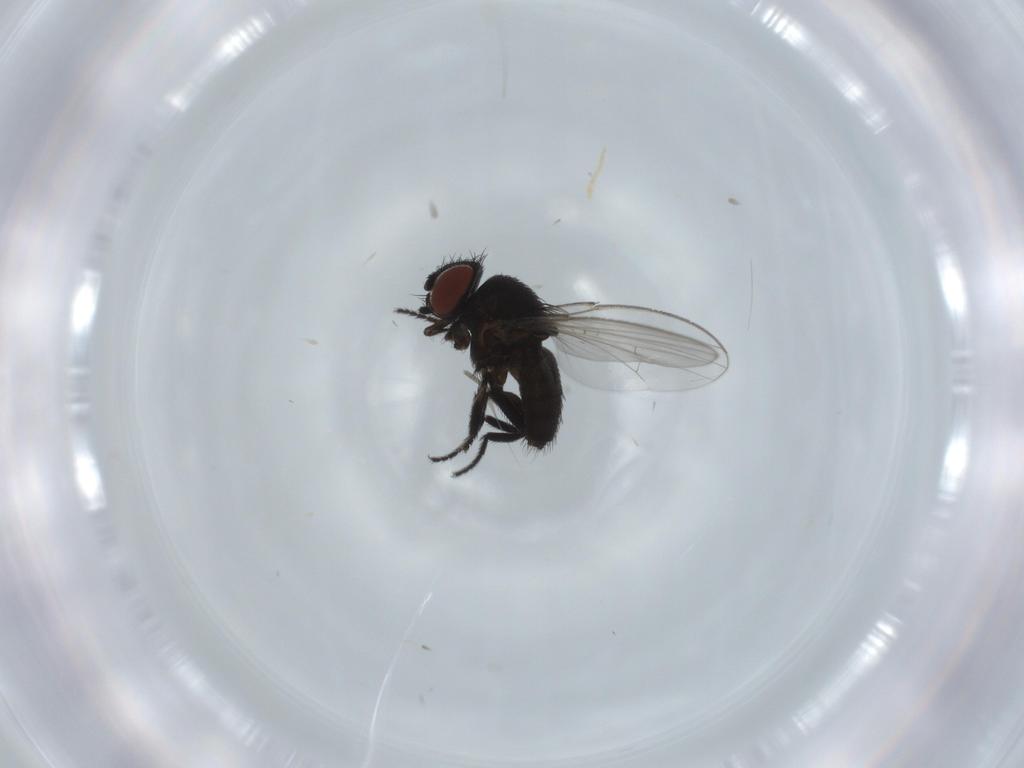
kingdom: Animalia
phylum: Arthropoda
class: Insecta
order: Diptera
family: Milichiidae
